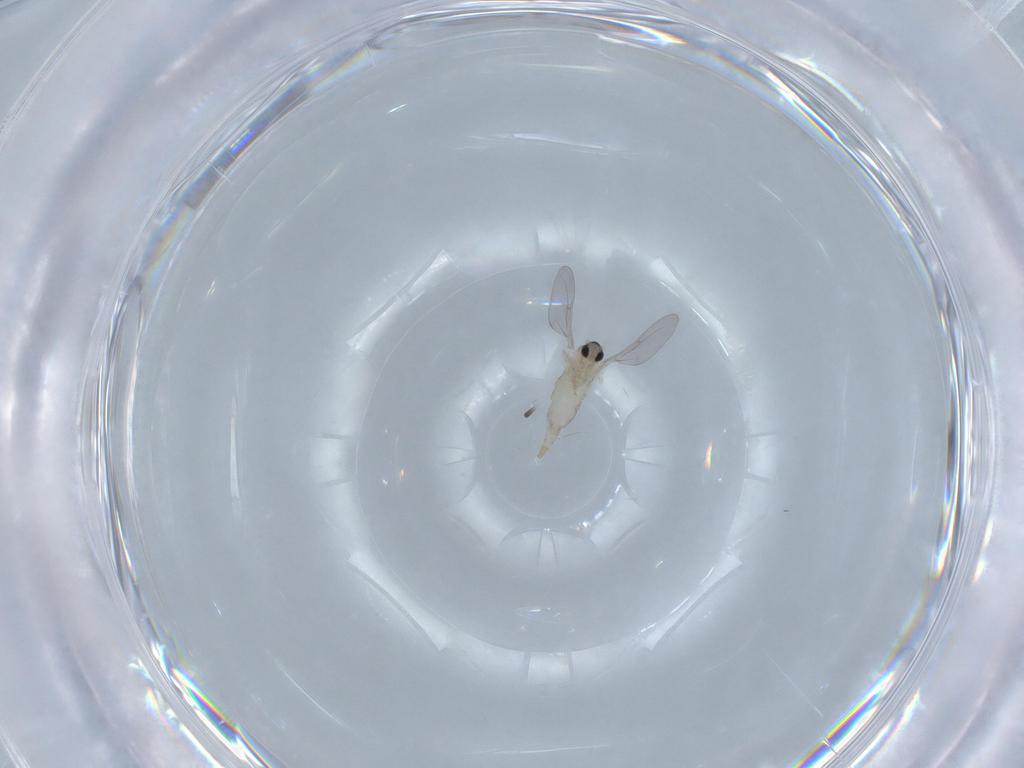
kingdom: Animalia
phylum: Arthropoda
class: Insecta
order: Diptera
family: Cecidomyiidae
